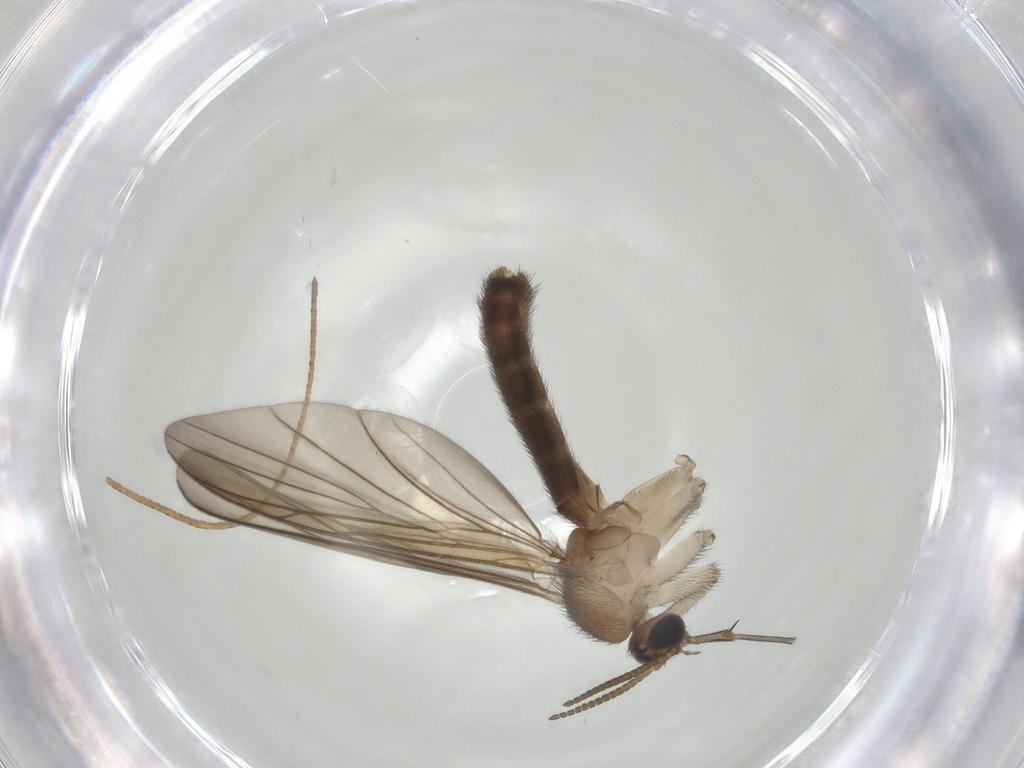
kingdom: Animalia
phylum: Arthropoda
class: Insecta
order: Diptera
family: Keroplatidae
